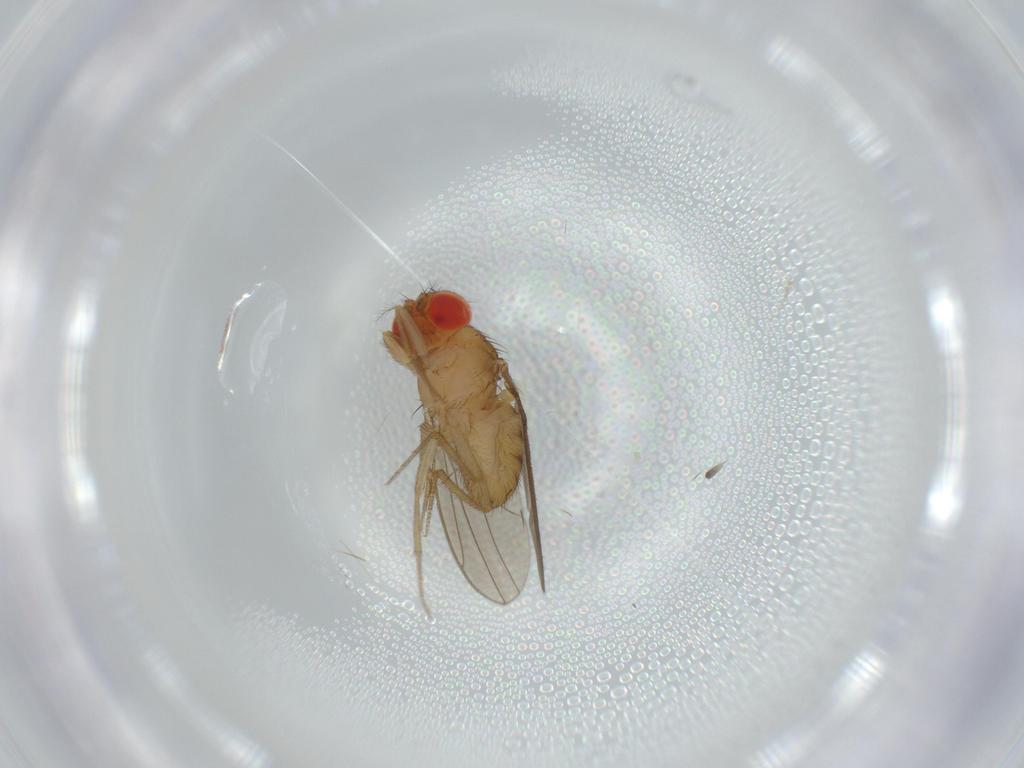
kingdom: Animalia
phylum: Arthropoda
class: Insecta
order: Diptera
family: Drosophilidae
